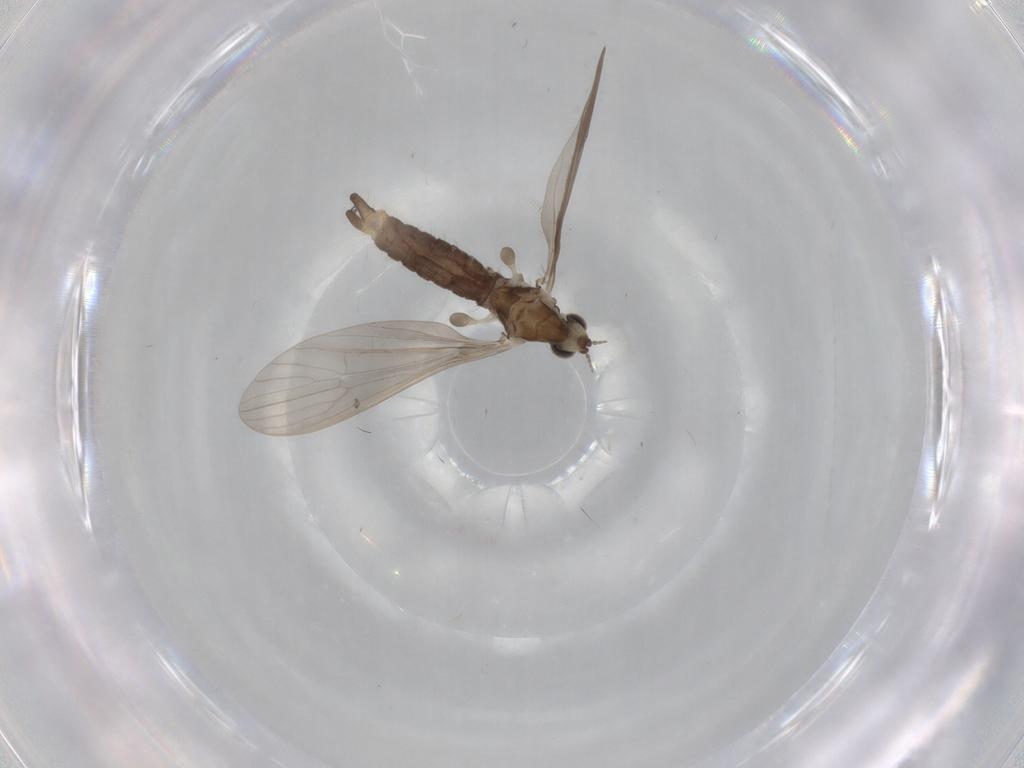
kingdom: Animalia
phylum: Arthropoda
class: Insecta
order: Diptera
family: Phoridae
